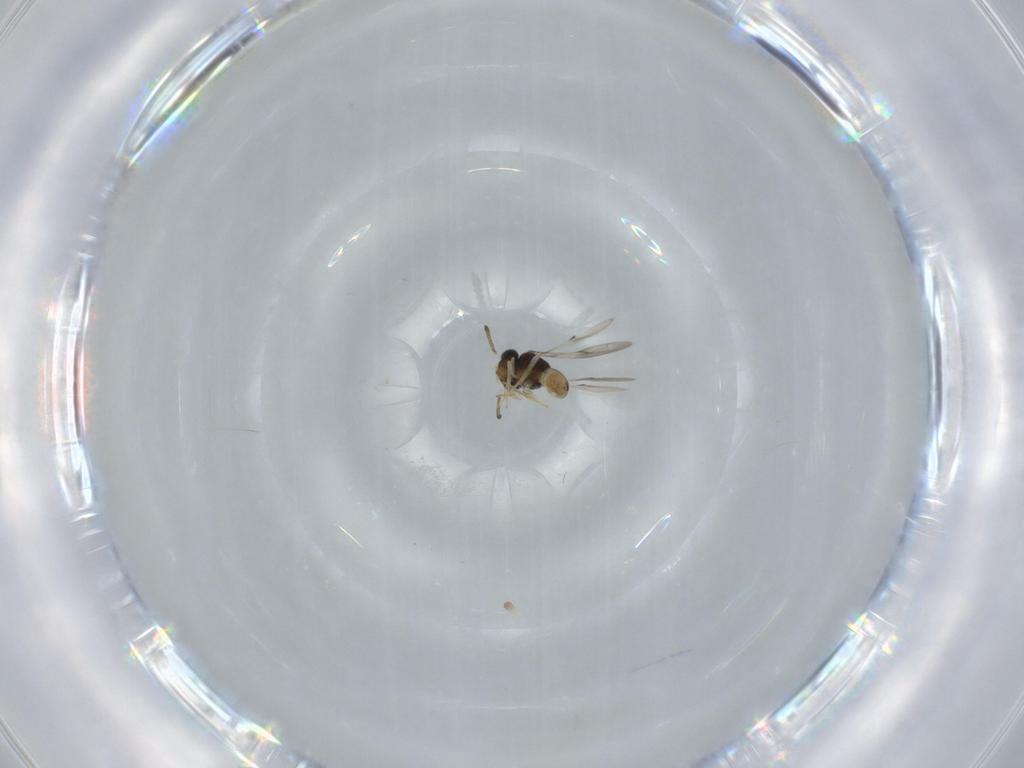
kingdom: Animalia
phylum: Arthropoda
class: Insecta
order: Hymenoptera
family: Scelionidae
